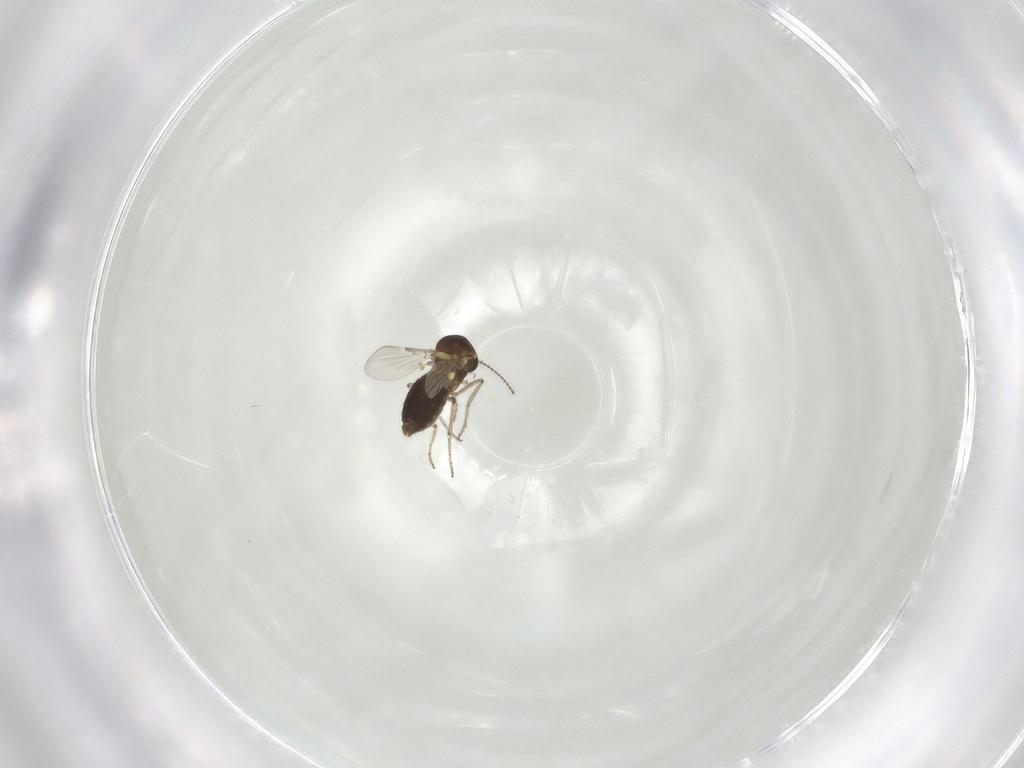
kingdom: Animalia
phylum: Arthropoda
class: Insecta
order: Diptera
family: Ceratopogonidae
